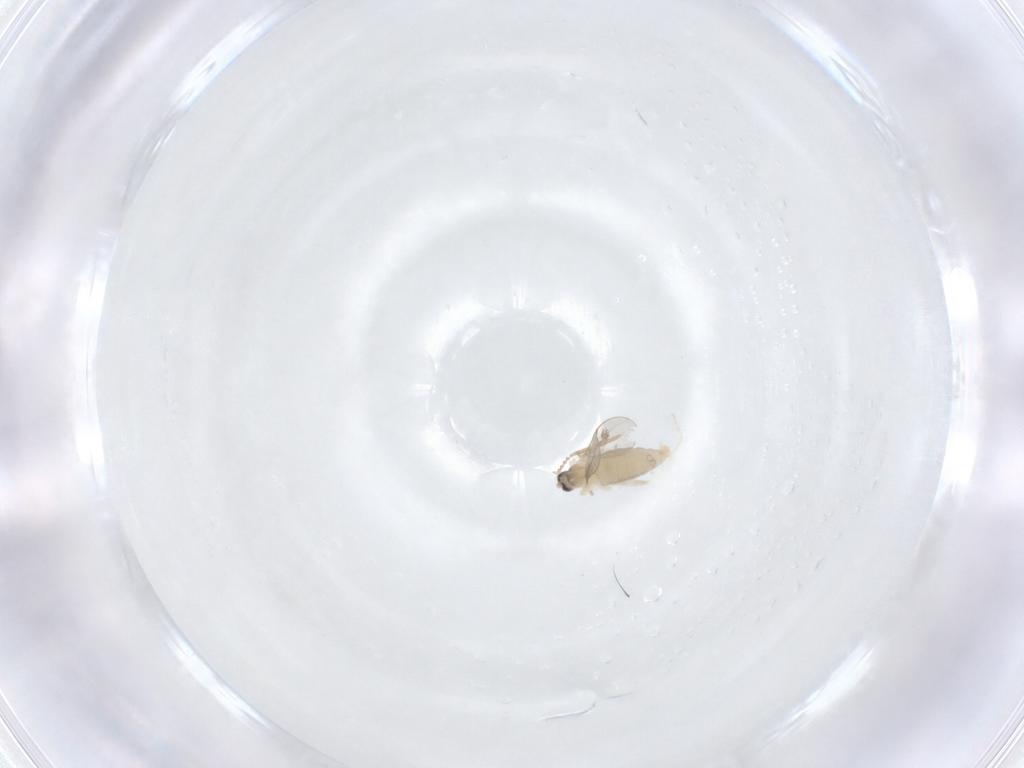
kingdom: Animalia
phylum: Arthropoda
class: Insecta
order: Diptera
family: Cecidomyiidae
